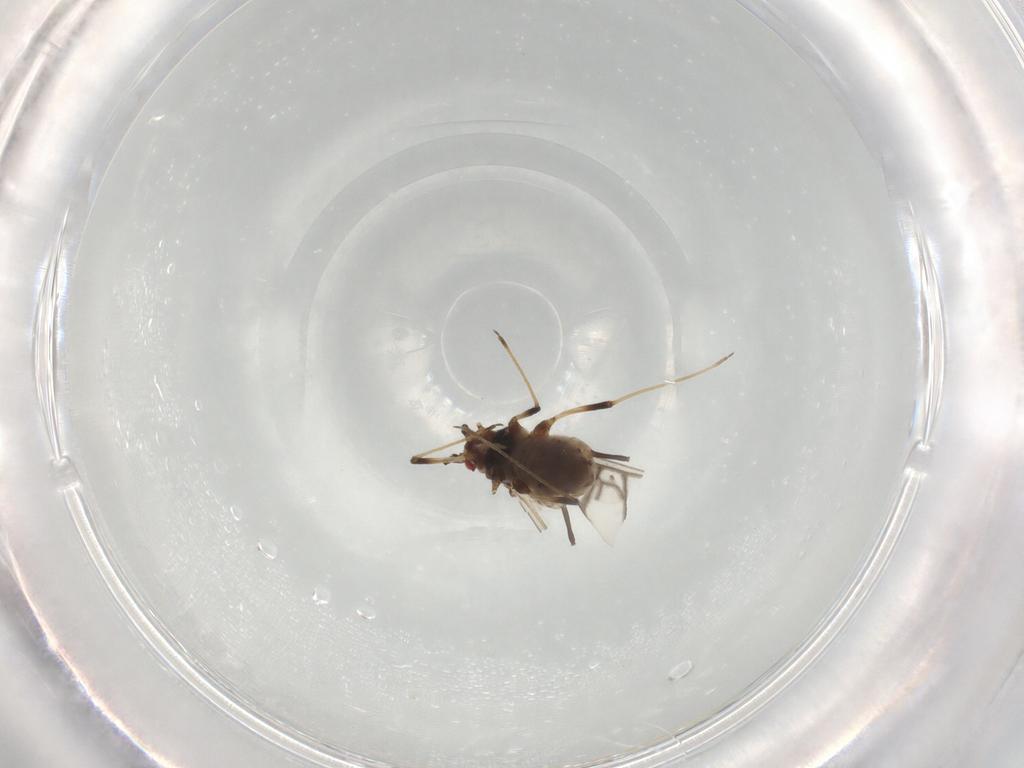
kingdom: Animalia
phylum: Arthropoda
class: Insecta
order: Hemiptera
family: Aphididae
